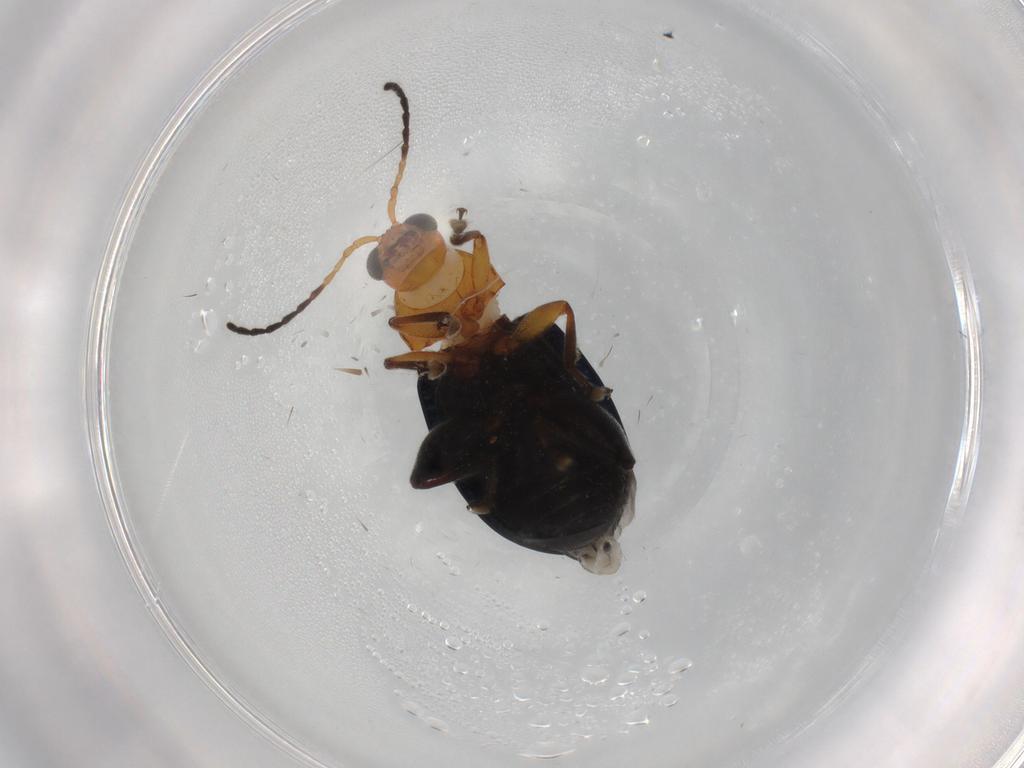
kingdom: Animalia
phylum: Arthropoda
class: Insecta
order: Coleoptera
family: Chrysomelidae
